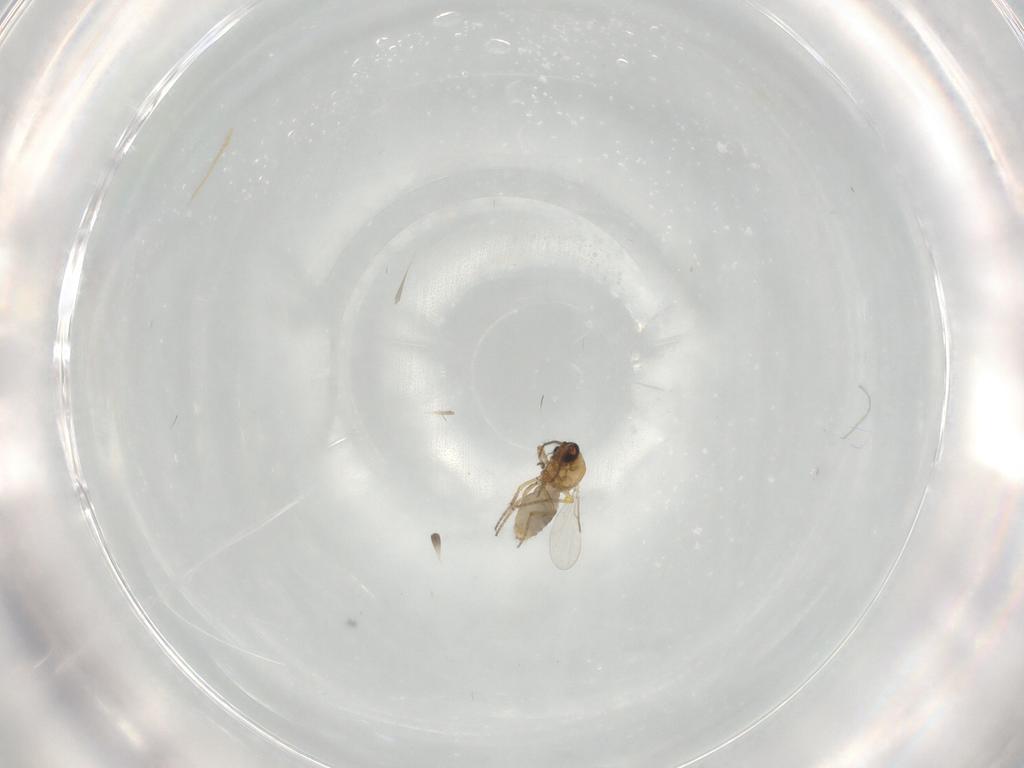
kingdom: Animalia
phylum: Arthropoda
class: Insecta
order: Diptera
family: Ceratopogonidae
